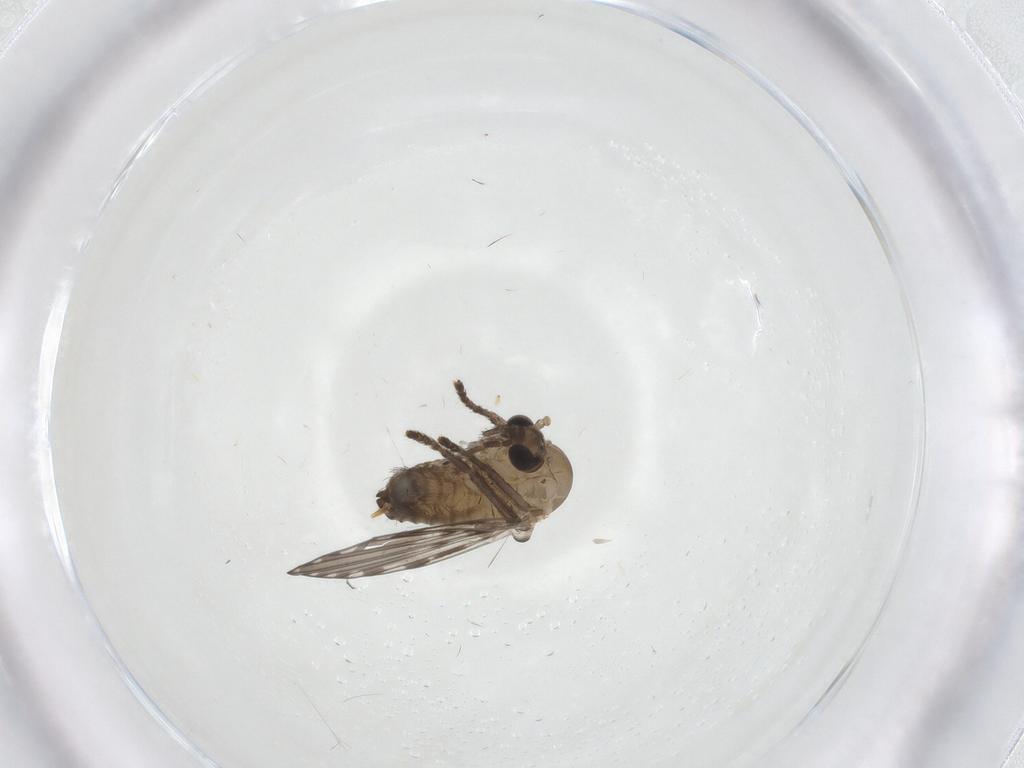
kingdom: Animalia
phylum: Arthropoda
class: Insecta
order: Diptera
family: Psychodidae
